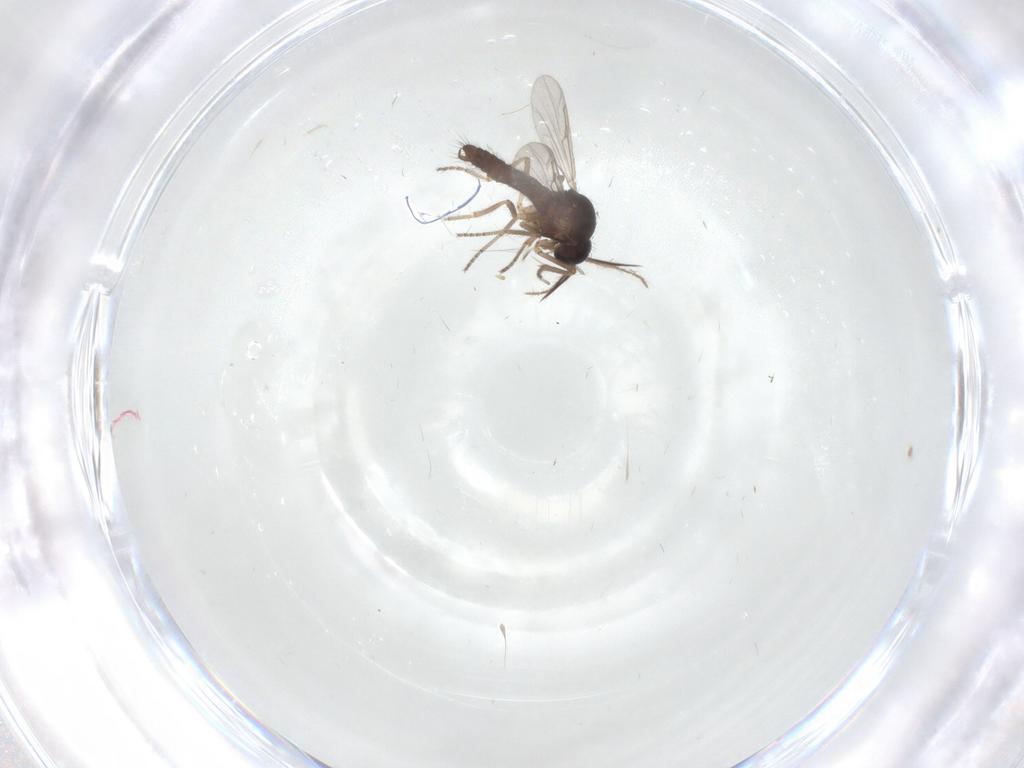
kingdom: Animalia
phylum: Arthropoda
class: Insecta
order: Diptera
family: Ceratopogonidae
